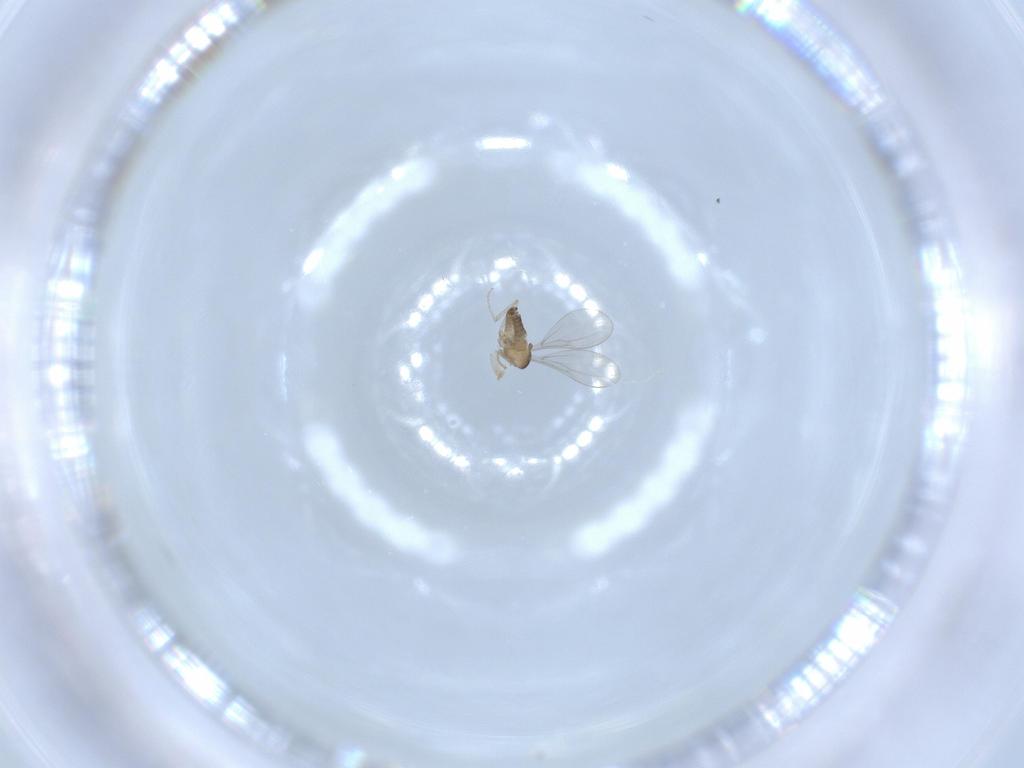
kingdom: Animalia
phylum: Arthropoda
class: Insecta
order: Diptera
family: Cecidomyiidae
